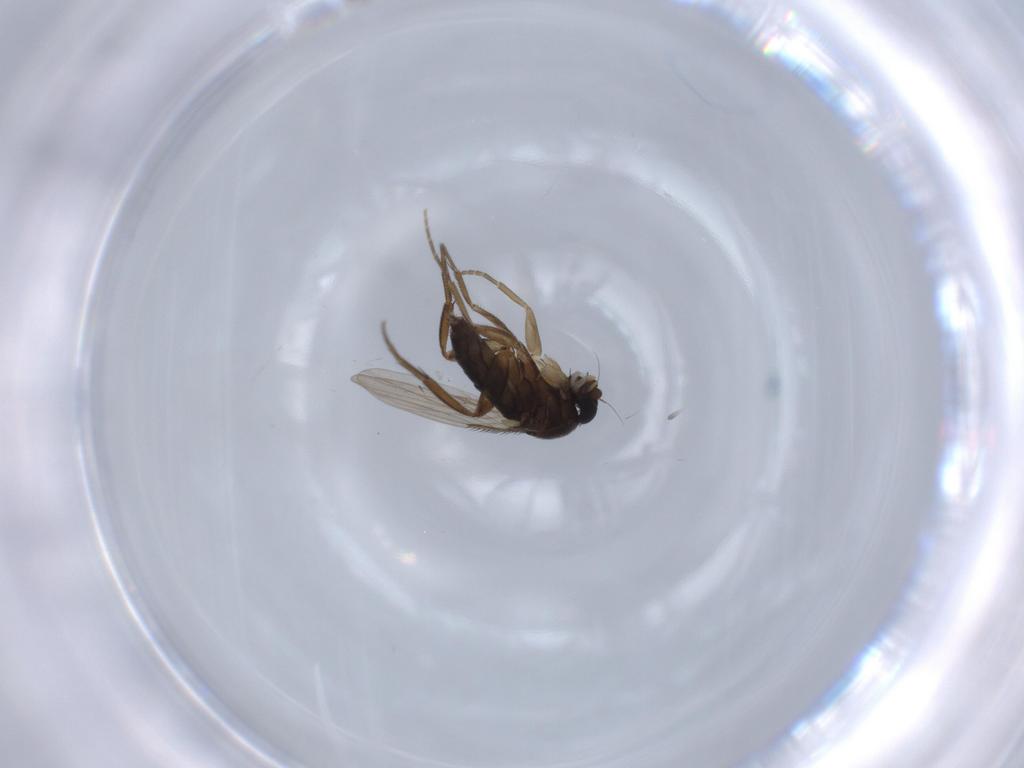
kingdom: Animalia
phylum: Arthropoda
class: Insecta
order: Diptera
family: Phoridae
